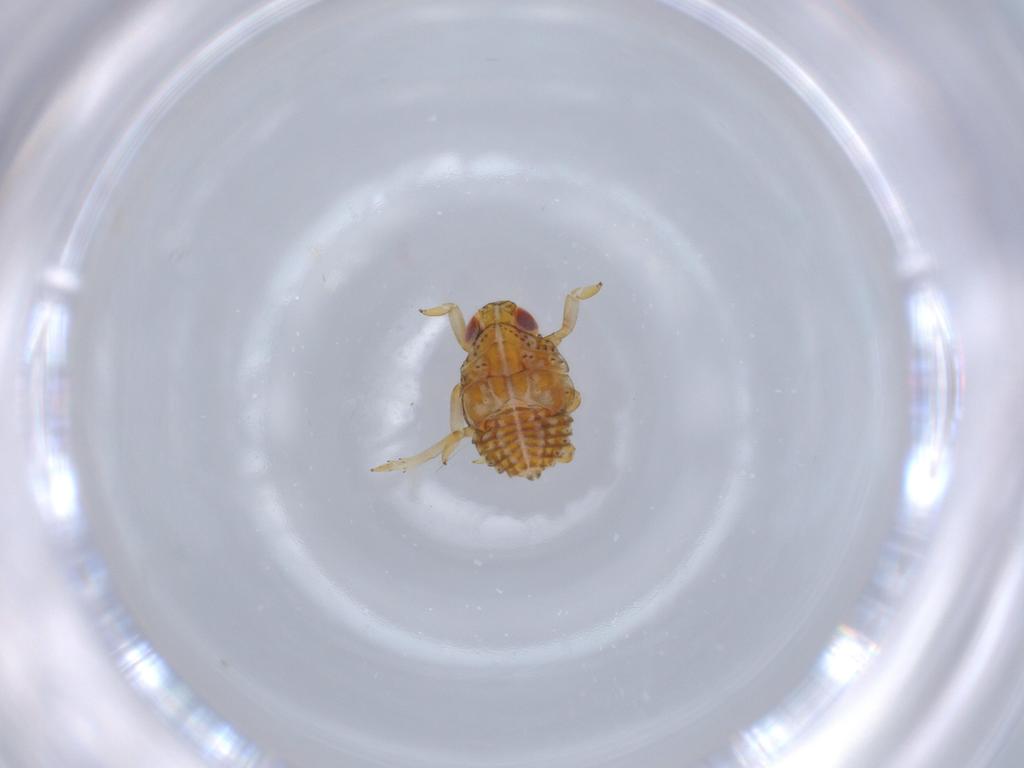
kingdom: Animalia
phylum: Arthropoda
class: Insecta
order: Hemiptera
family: Issidae
